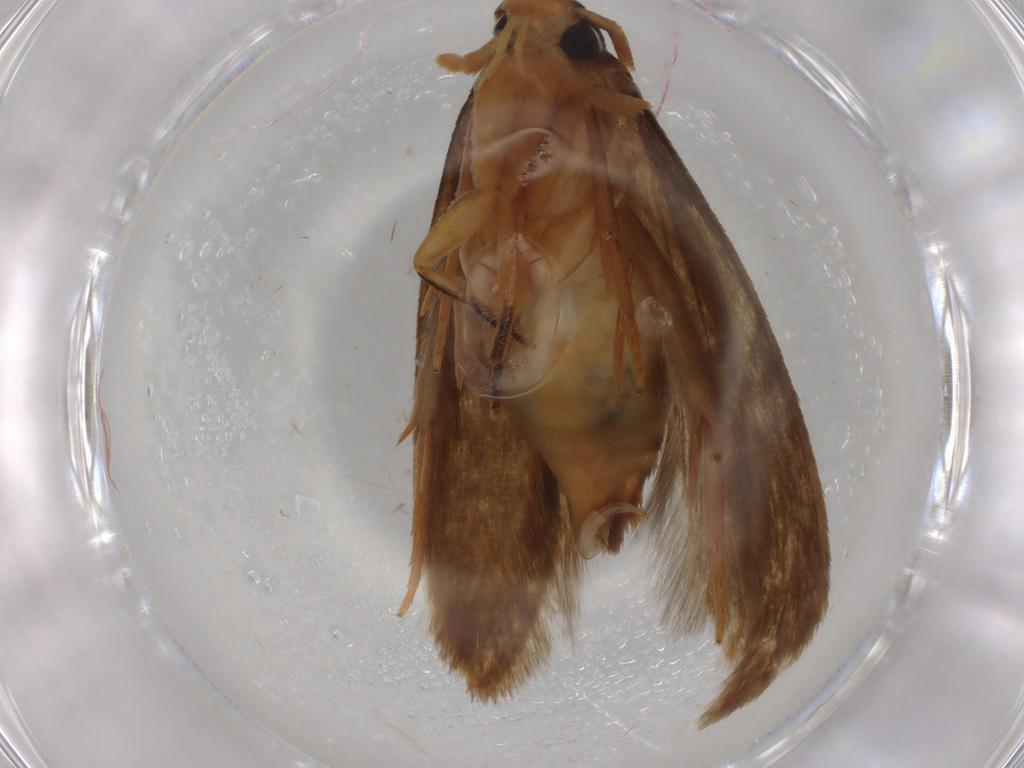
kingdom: Animalia
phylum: Arthropoda
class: Insecta
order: Lepidoptera
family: Tineidae
